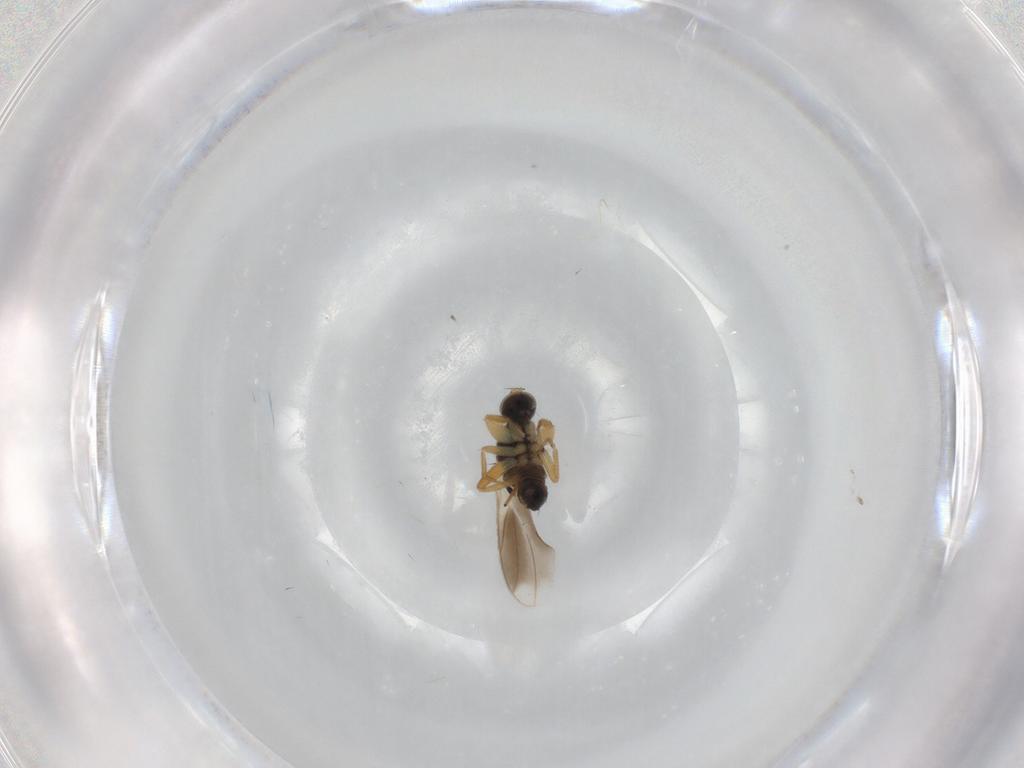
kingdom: Animalia
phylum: Arthropoda
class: Insecta
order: Diptera
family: Hybotidae
